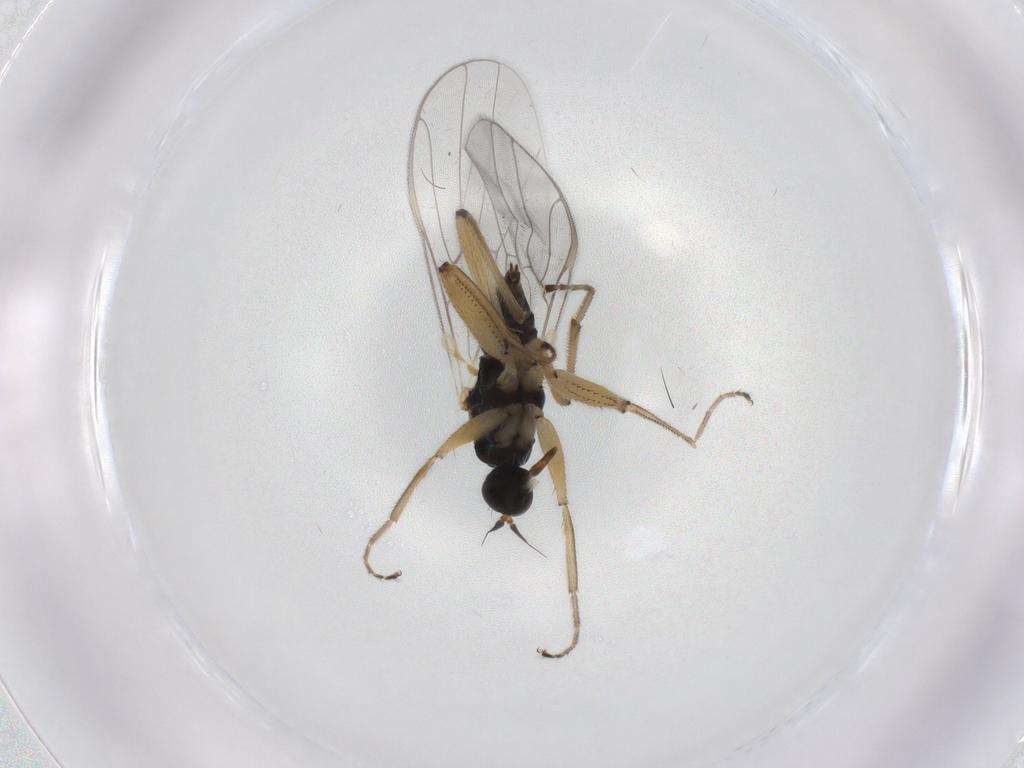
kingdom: Animalia
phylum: Arthropoda
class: Insecta
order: Diptera
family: Hybotidae
